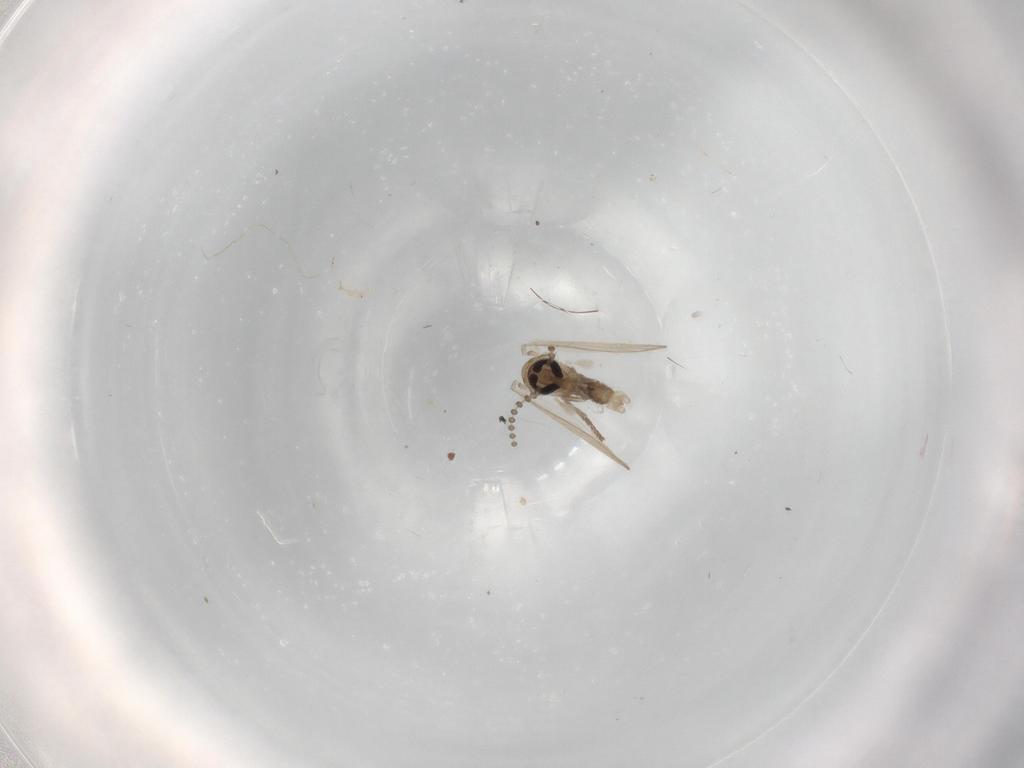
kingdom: Animalia
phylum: Arthropoda
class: Insecta
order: Diptera
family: Psychodidae
